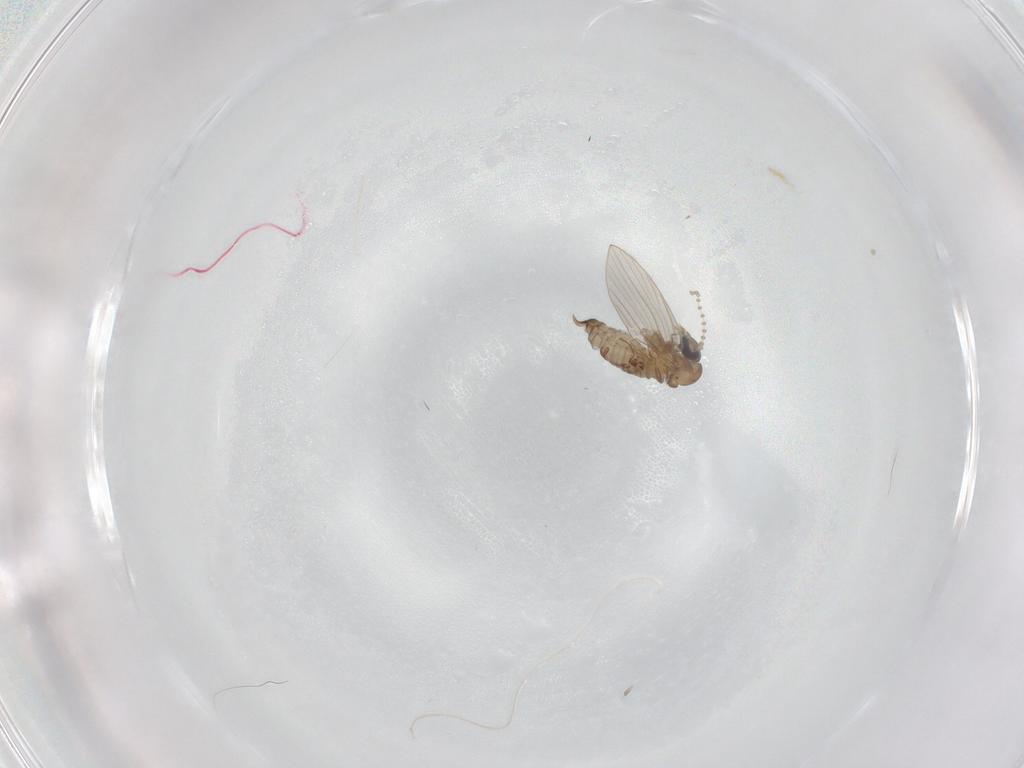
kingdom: Animalia
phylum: Arthropoda
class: Insecta
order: Diptera
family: Psychodidae
